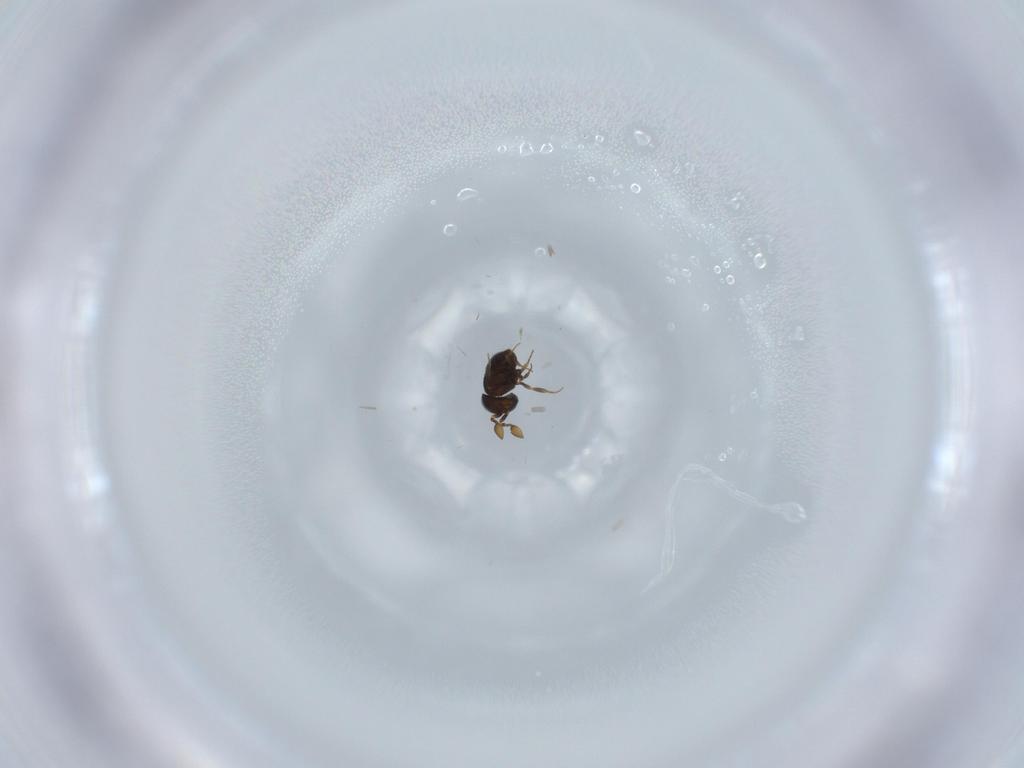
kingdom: Animalia
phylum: Arthropoda
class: Insecta
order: Hymenoptera
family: Scelionidae
